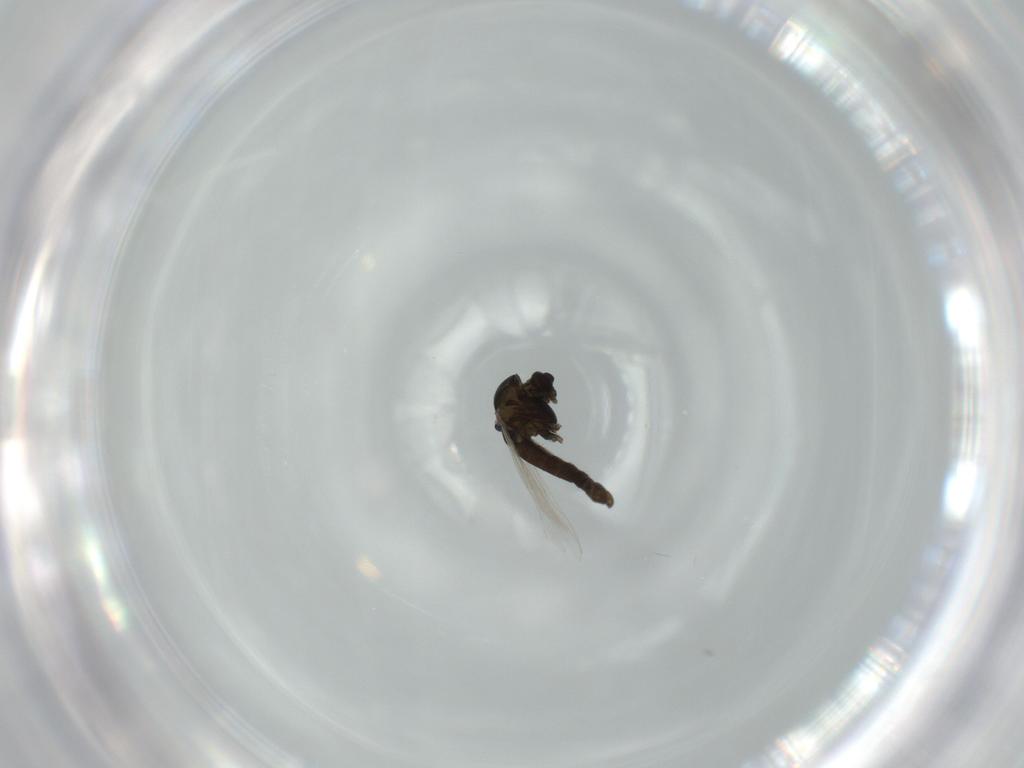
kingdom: Animalia
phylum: Arthropoda
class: Insecta
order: Diptera
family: Chironomidae
